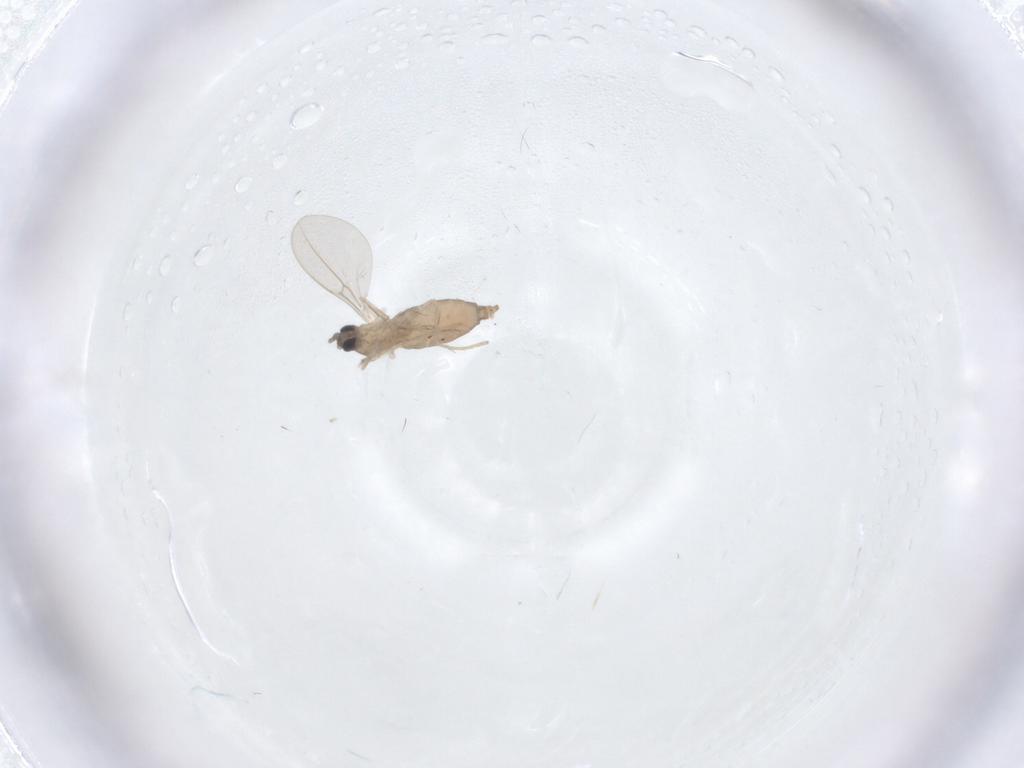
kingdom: Animalia
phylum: Arthropoda
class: Insecta
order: Diptera
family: Cecidomyiidae
